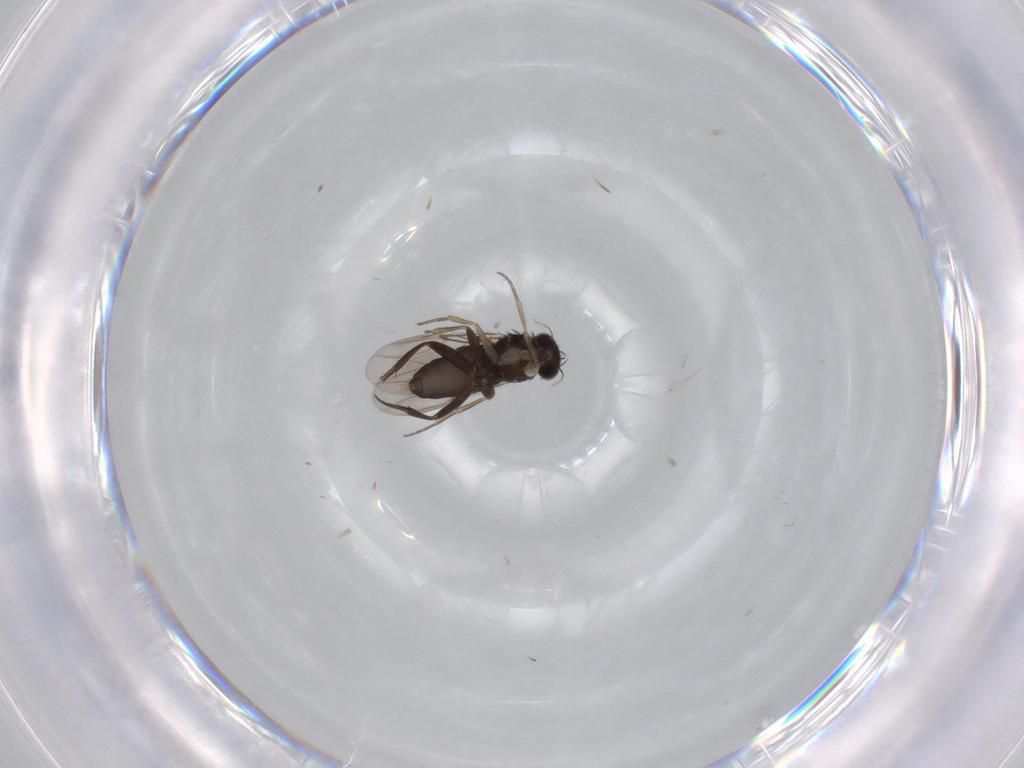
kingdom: Animalia
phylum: Arthropoda
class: Insecta
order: Diptera
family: Phoridae
